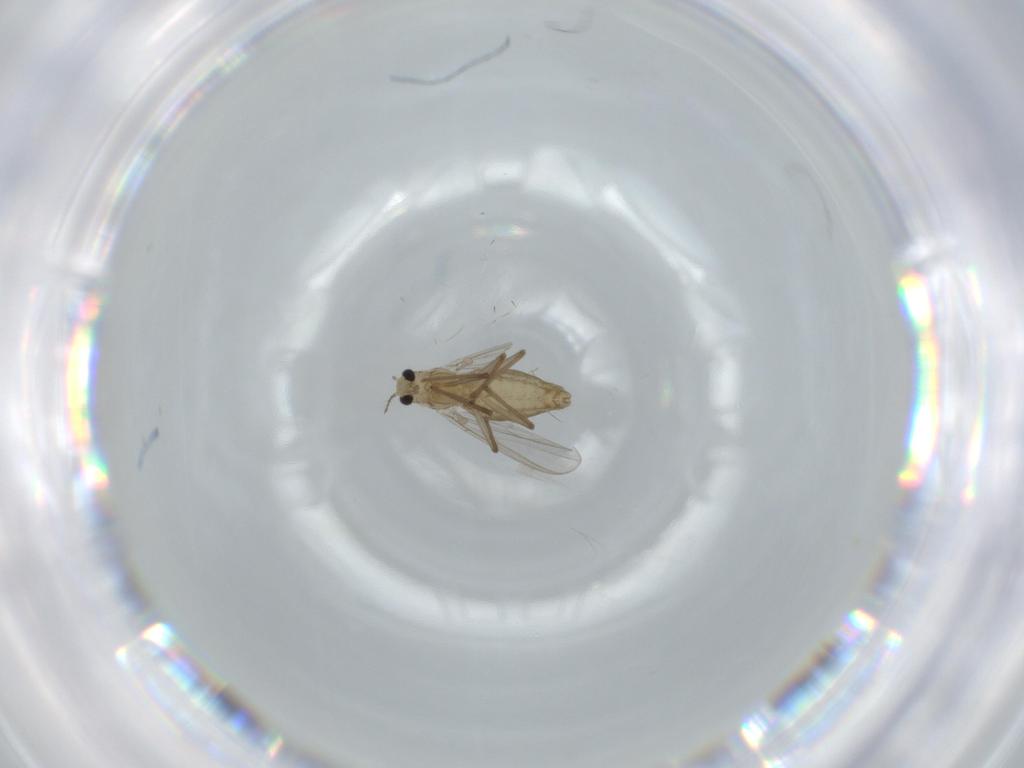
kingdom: Animalia
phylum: Arthropoda
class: Insecta
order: Diptera
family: Chironomidae
